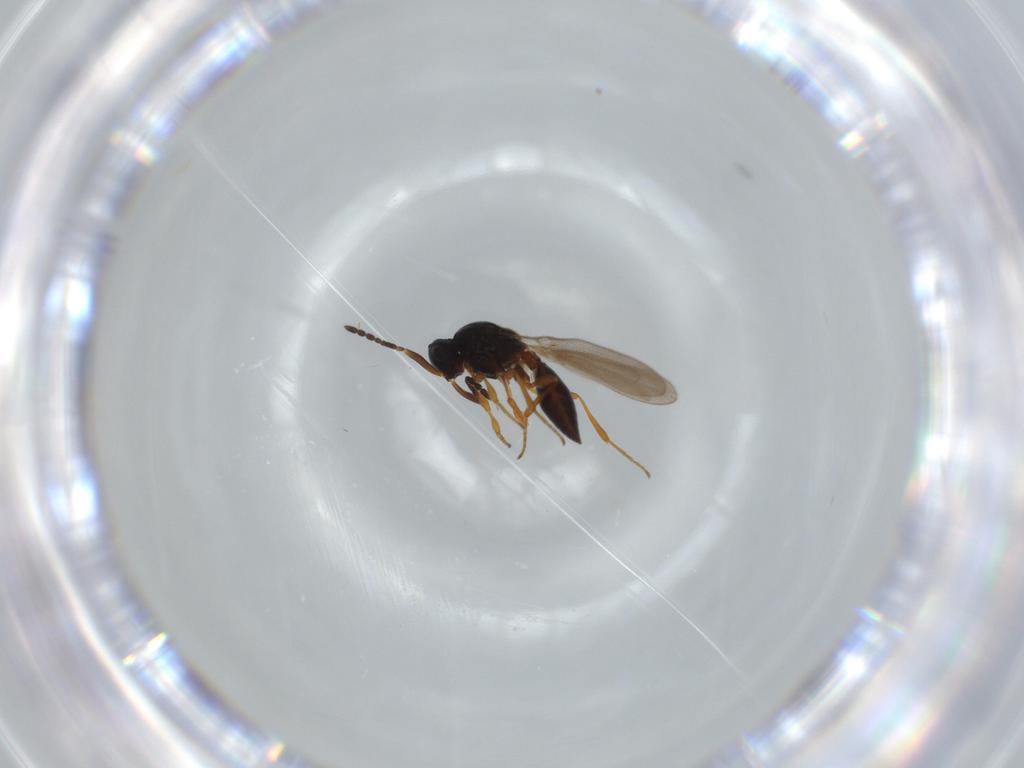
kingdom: Animalia
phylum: Arthropoda
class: Insecta
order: Hymenoptera
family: Platygastridae
